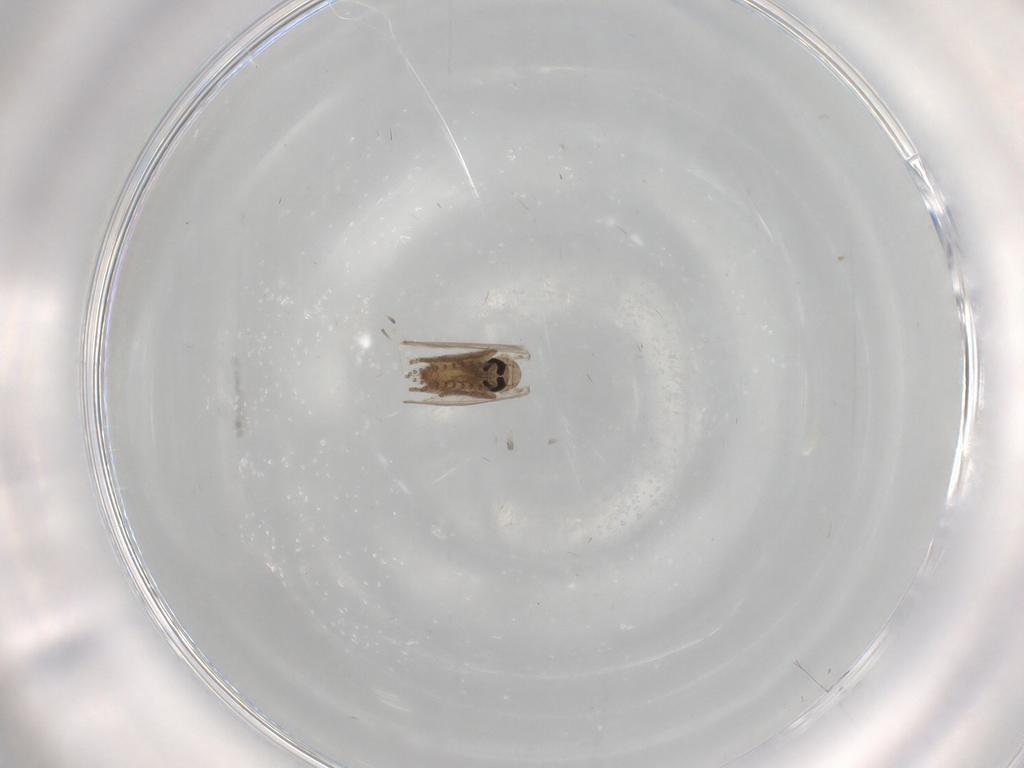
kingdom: Animalia
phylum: Arthropoda
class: Insecta
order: Diptera
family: Psychodidae
